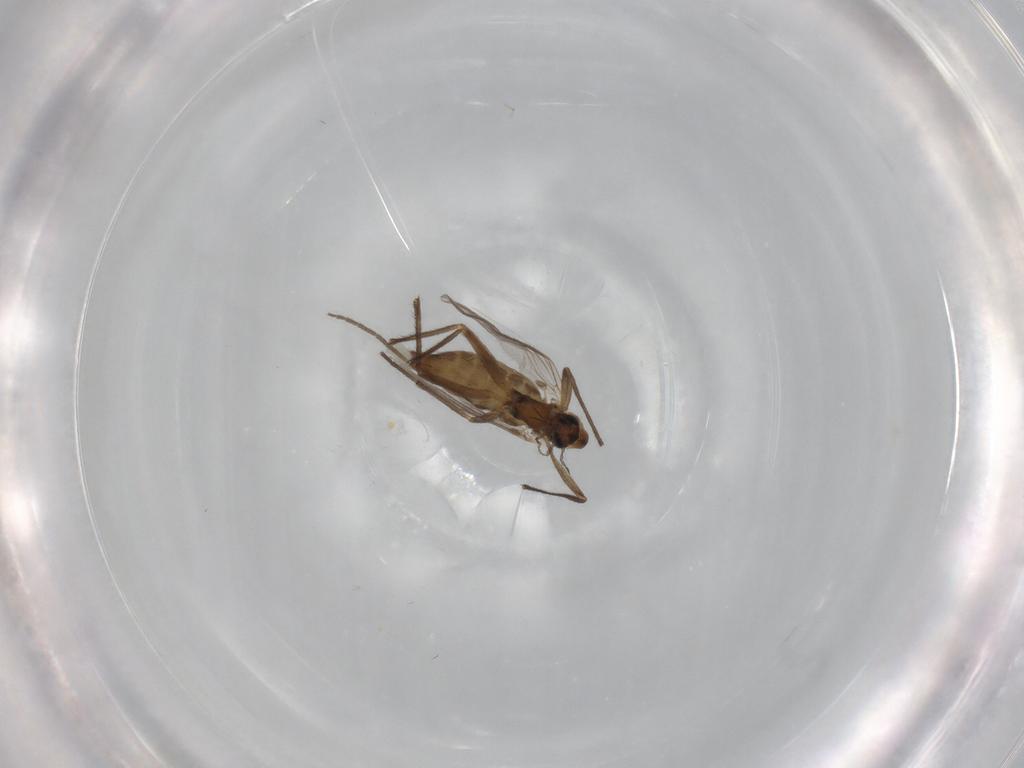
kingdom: Animalia
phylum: Arthropoda
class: Insecta
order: Diptera
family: Chironomidae
